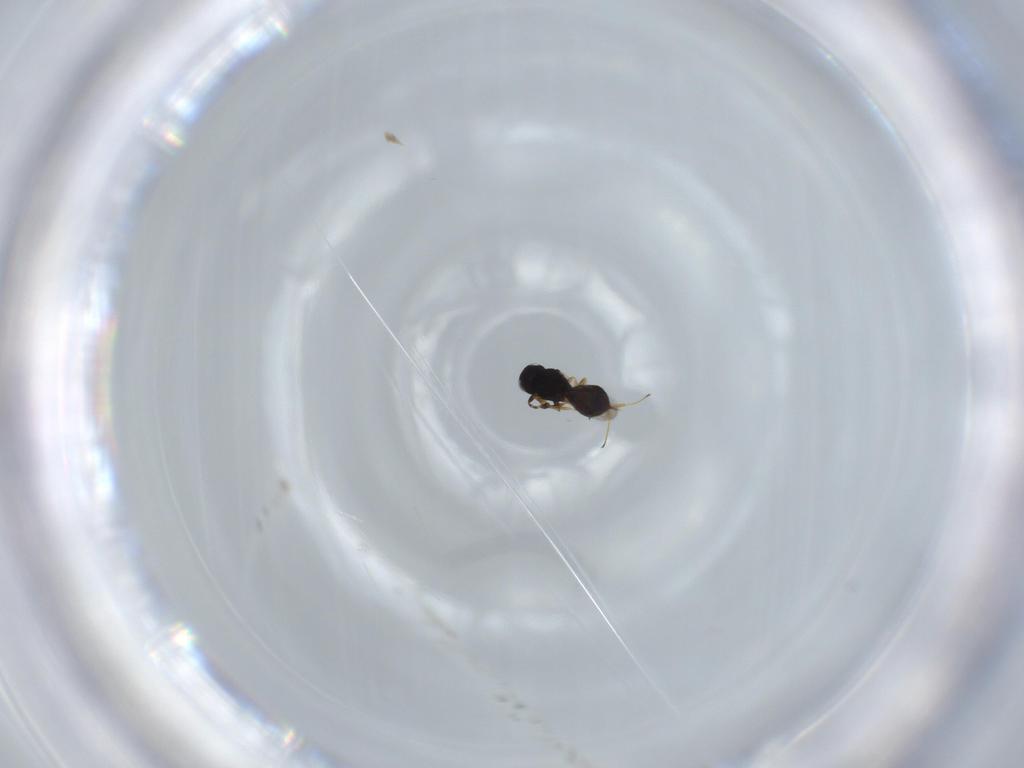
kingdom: Animalia
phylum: Arthropoda
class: Insecta
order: Hymenoptera
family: Scelionidae
